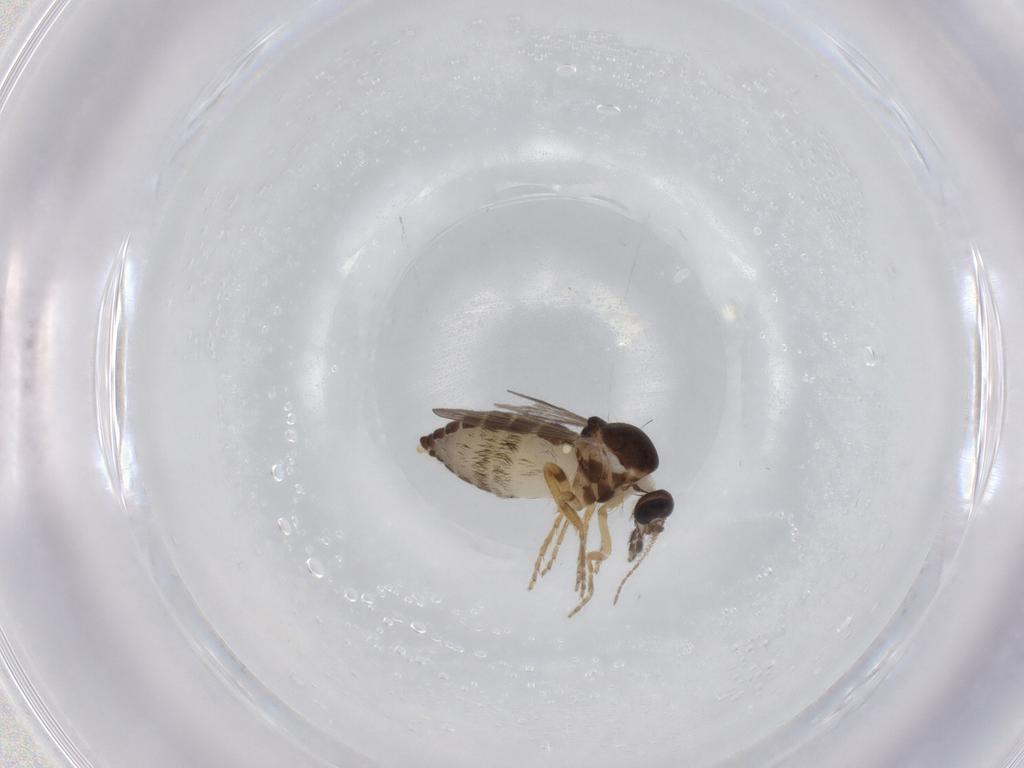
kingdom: Animalia
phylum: Arthropoda
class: Insecta
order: Diptera
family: Ceratopogonidae
